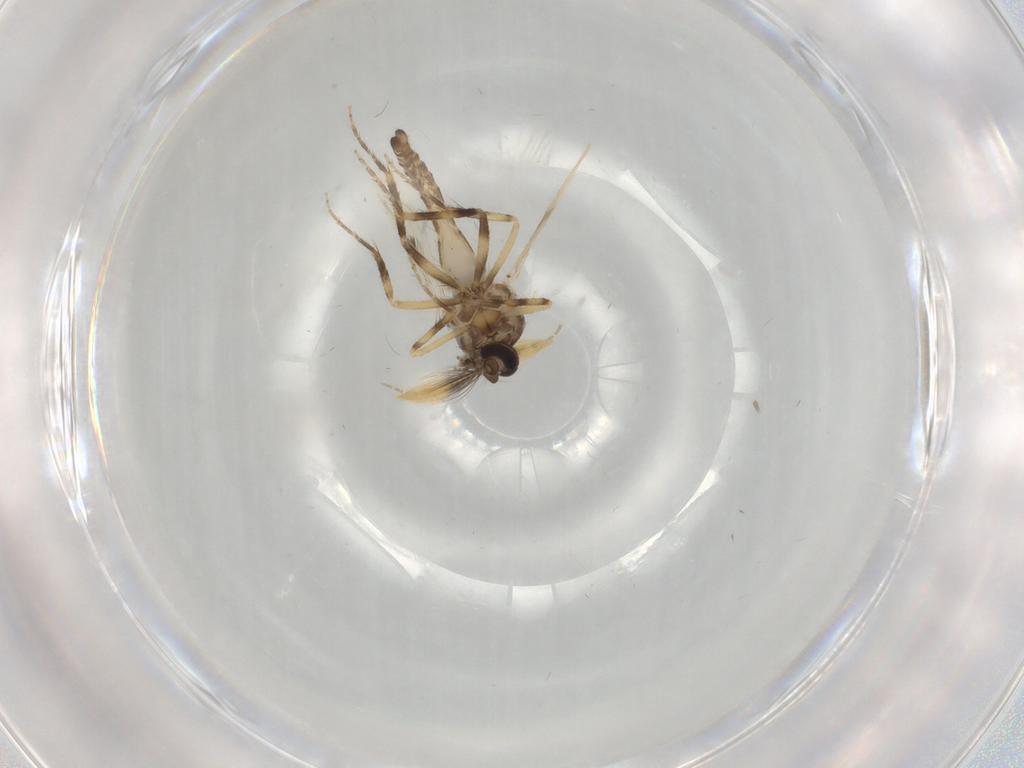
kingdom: Animalia
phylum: Arthropoda
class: Insecta
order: Diptera
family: Ceratopogonidae
